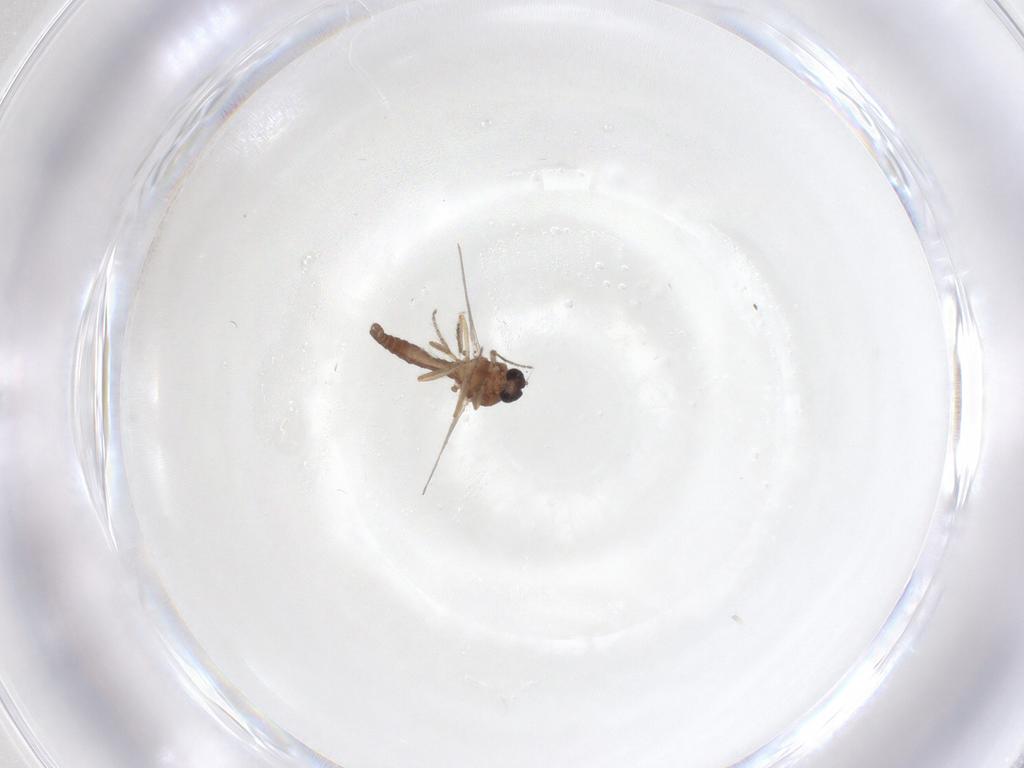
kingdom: Animalia
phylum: Arthropoda
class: Insecta
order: Diptera
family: Ceratopogonidae
